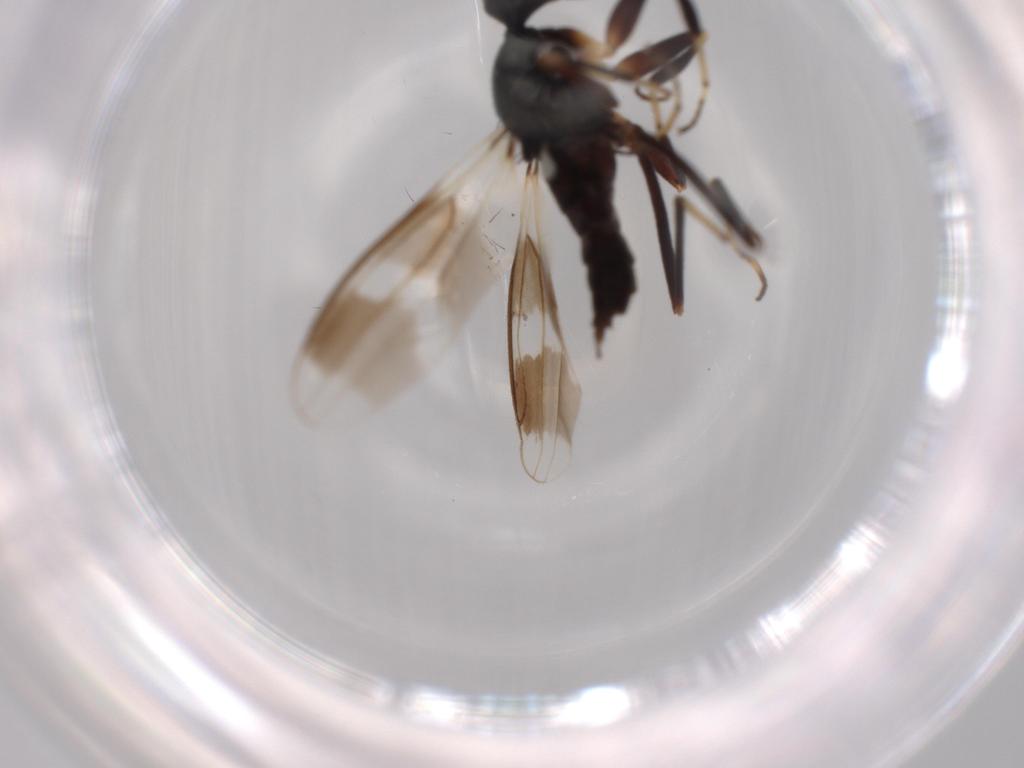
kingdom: Animalia
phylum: Arthropoda
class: Insecta
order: Diptera
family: Hybotidae
